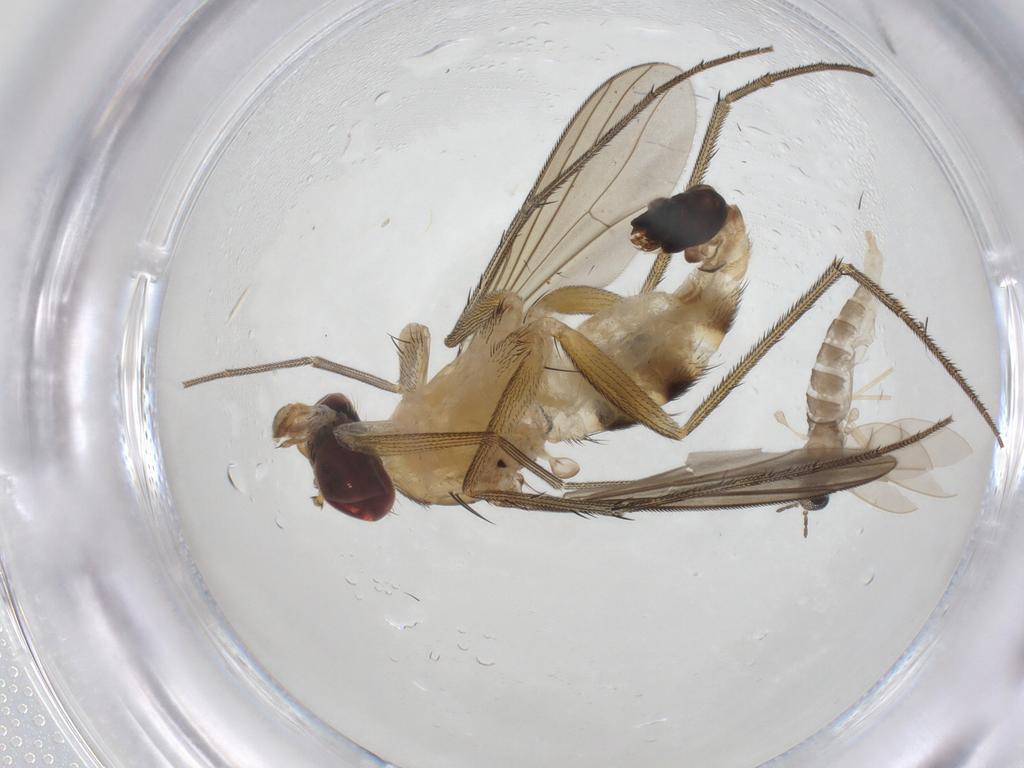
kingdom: Animalia
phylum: Arthropoda
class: Insecta
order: Diptera
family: Dolichopodidae
